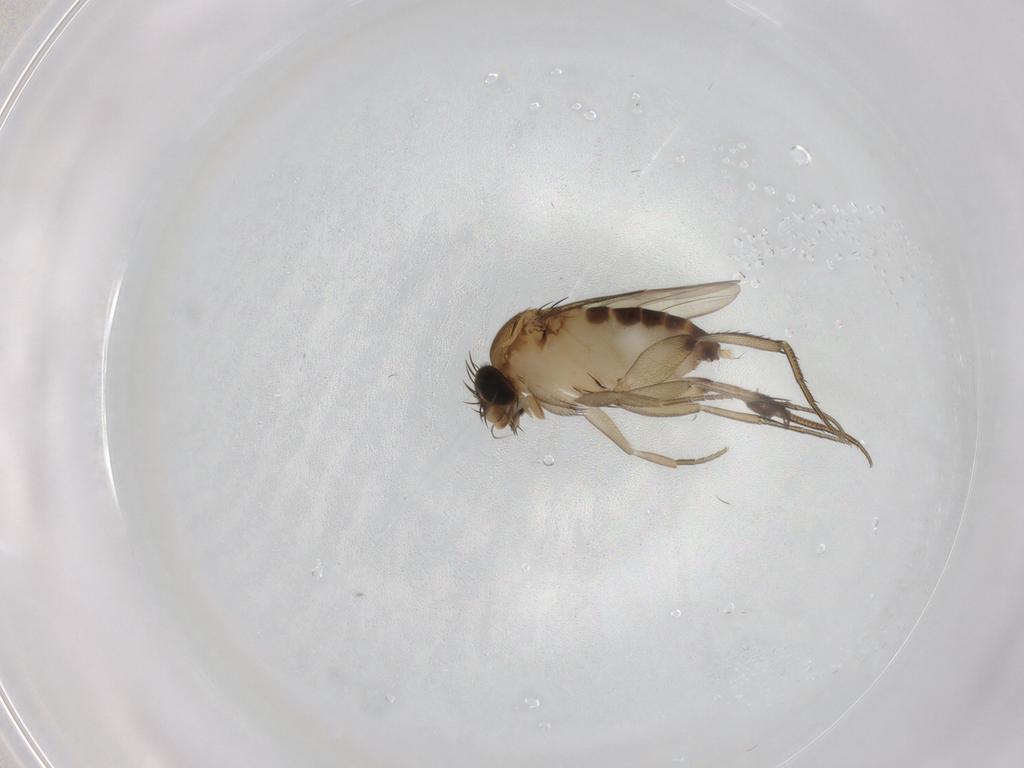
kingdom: Animalia
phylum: Arthropoda
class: Insecta
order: Diptera
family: Phoridae
